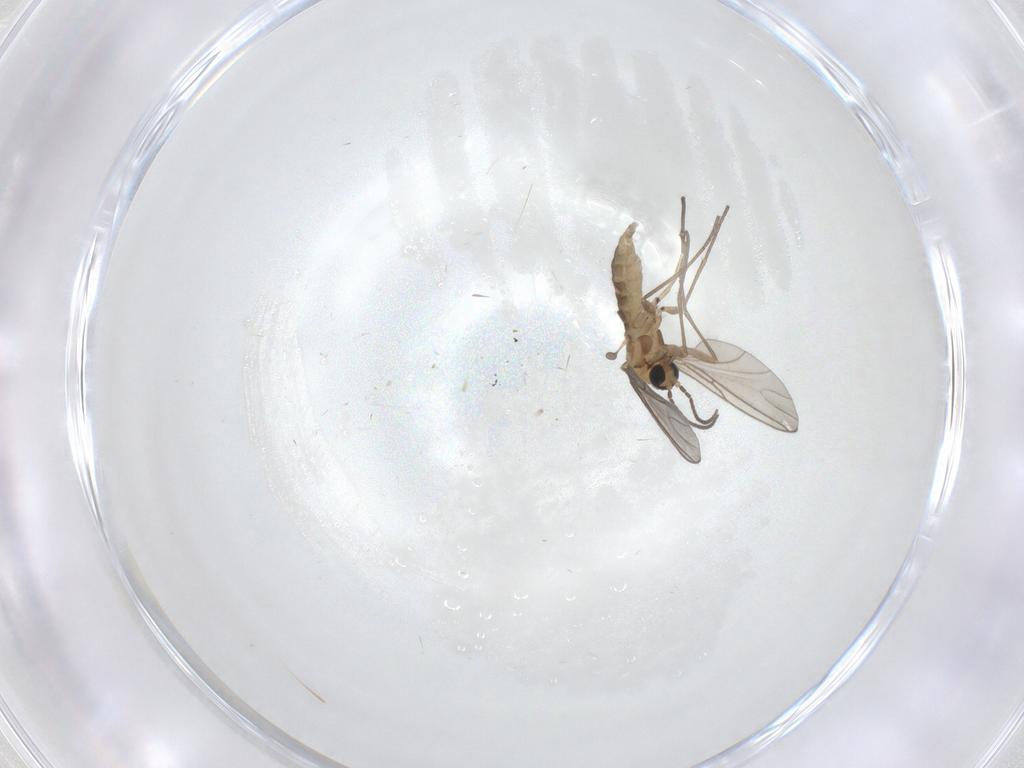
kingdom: Animalia
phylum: Arthropoda
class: Insecta
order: Diptera
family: Sciaridae
